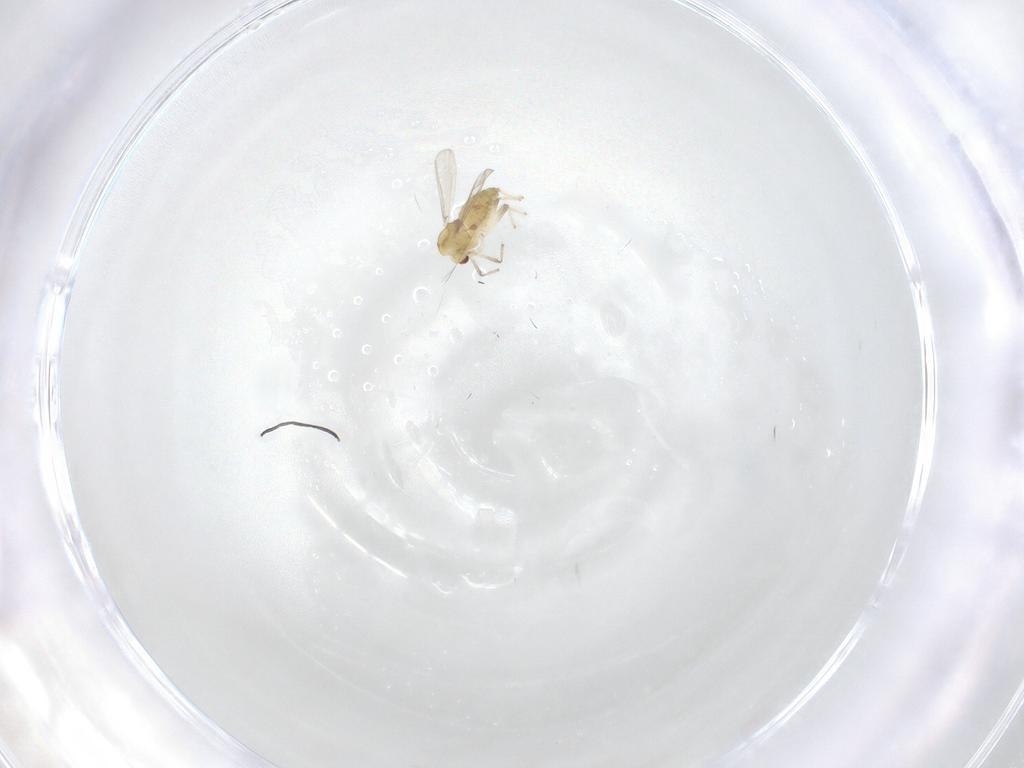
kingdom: Animalia
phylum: Arthropoda
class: Insecta
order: Diptera
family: Chironomidae
